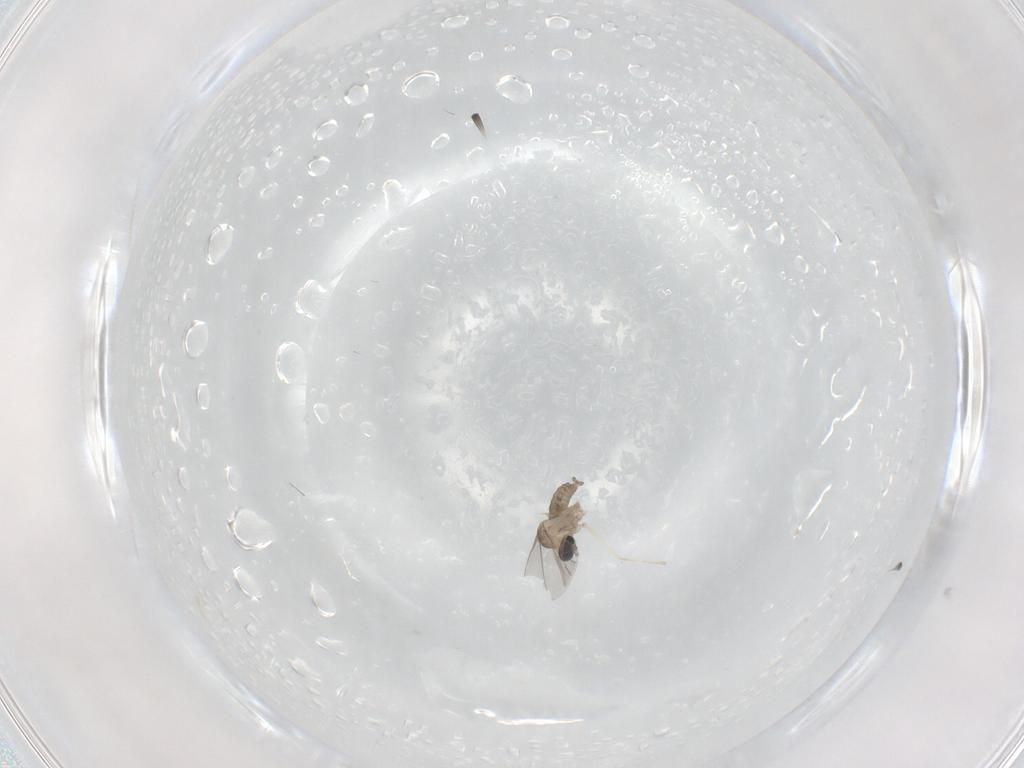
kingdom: Animalia
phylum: Arthropoda
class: Insecta
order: Diptera
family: Cecidomyiidae
